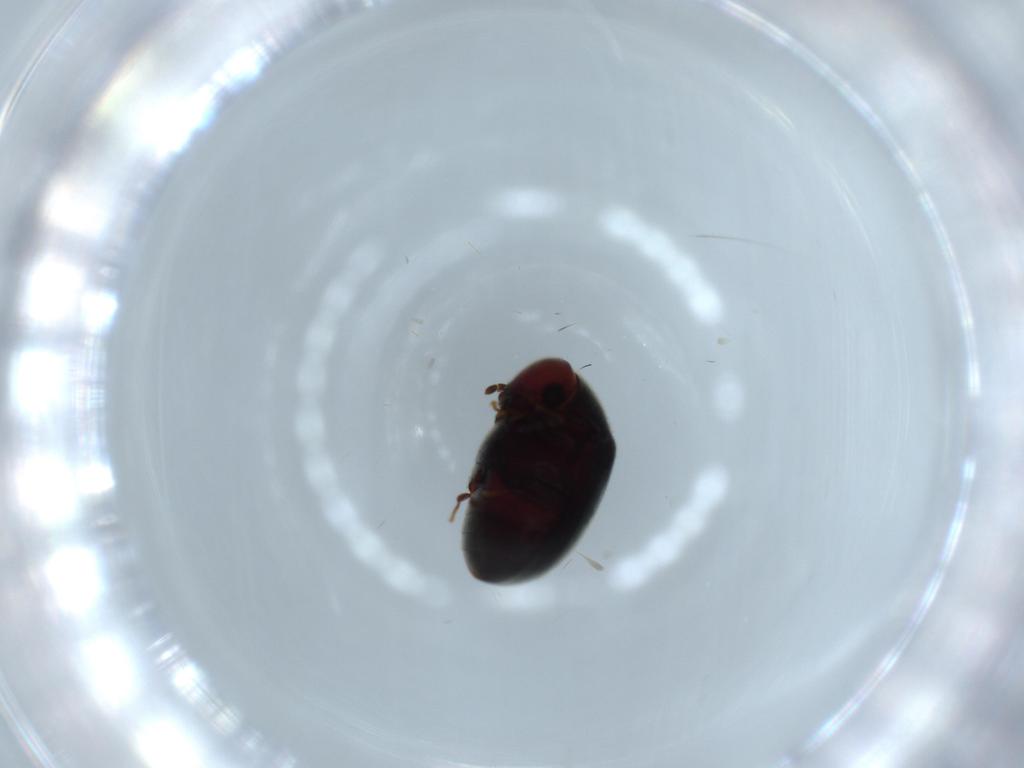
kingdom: Animalia
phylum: Arthropoda
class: Insecta
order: Coleoptera
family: Ptinidae
